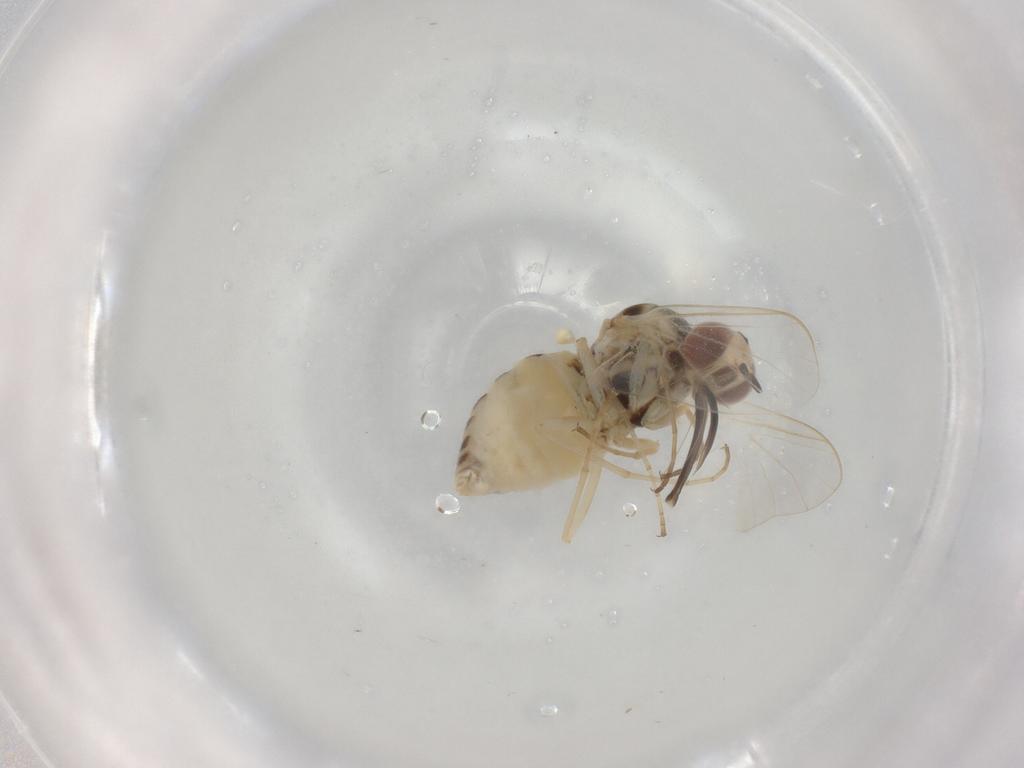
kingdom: Animalia
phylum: Arthropoda
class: Insecta
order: Diptera
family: Bombyliidae
